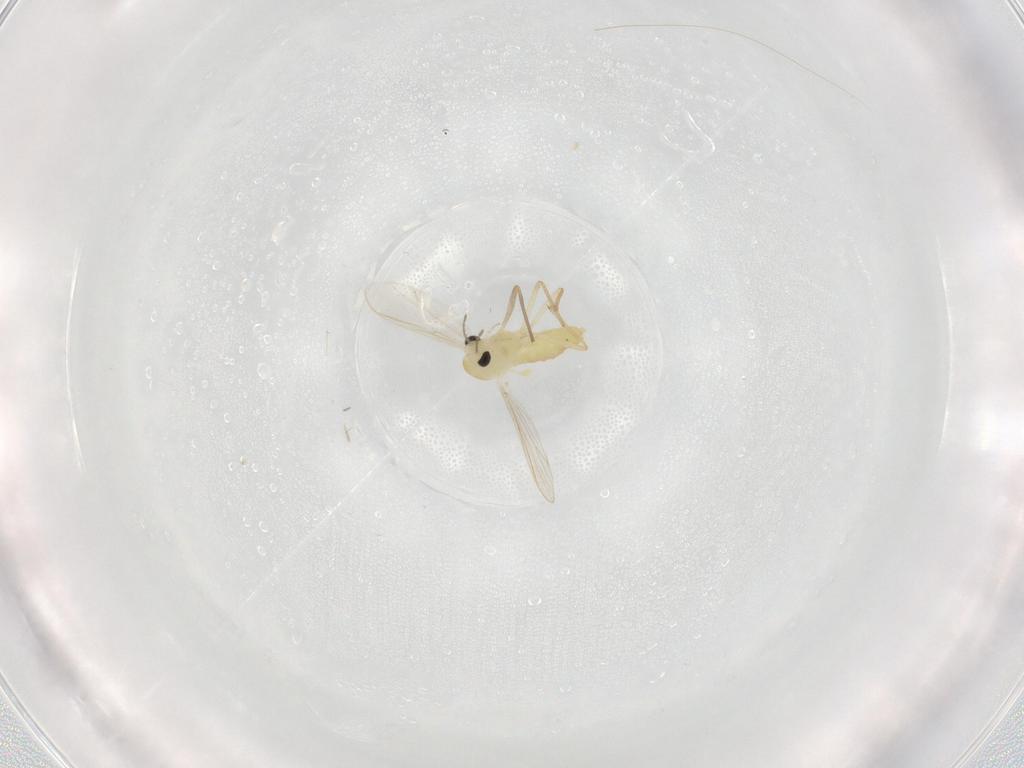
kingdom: Animalia
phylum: Arthropoda
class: Insecta
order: Diptera
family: Chironomidae
